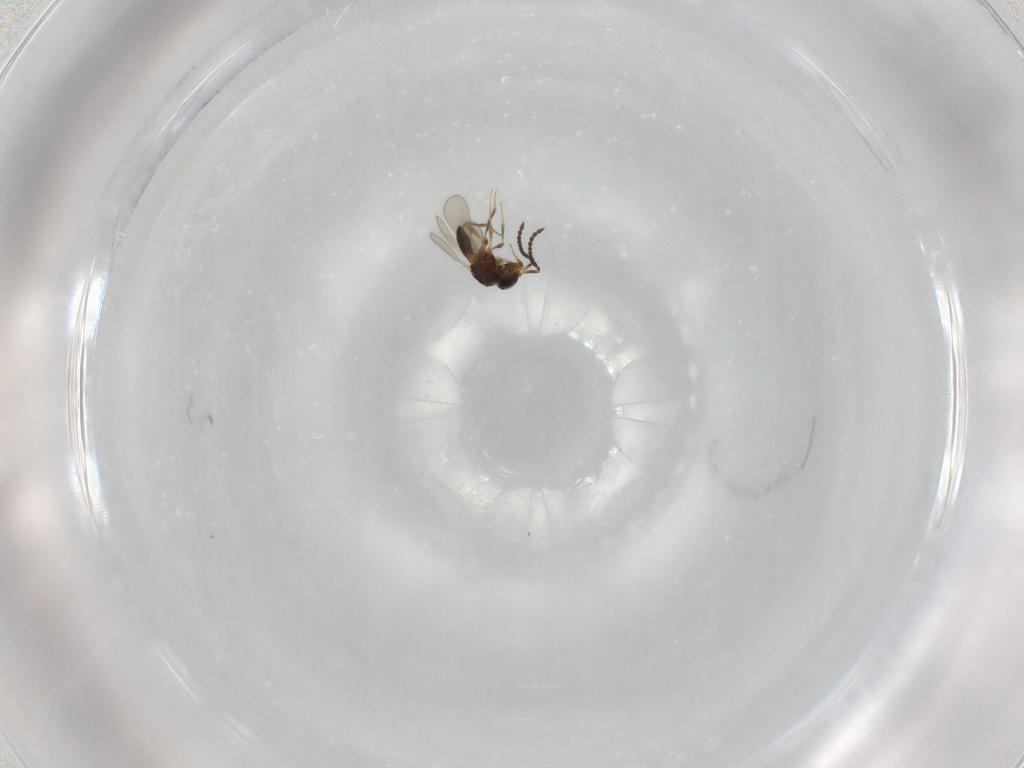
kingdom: Animalia
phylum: Arthropoda
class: Insecta
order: Hymenoptera
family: Scelionidae
